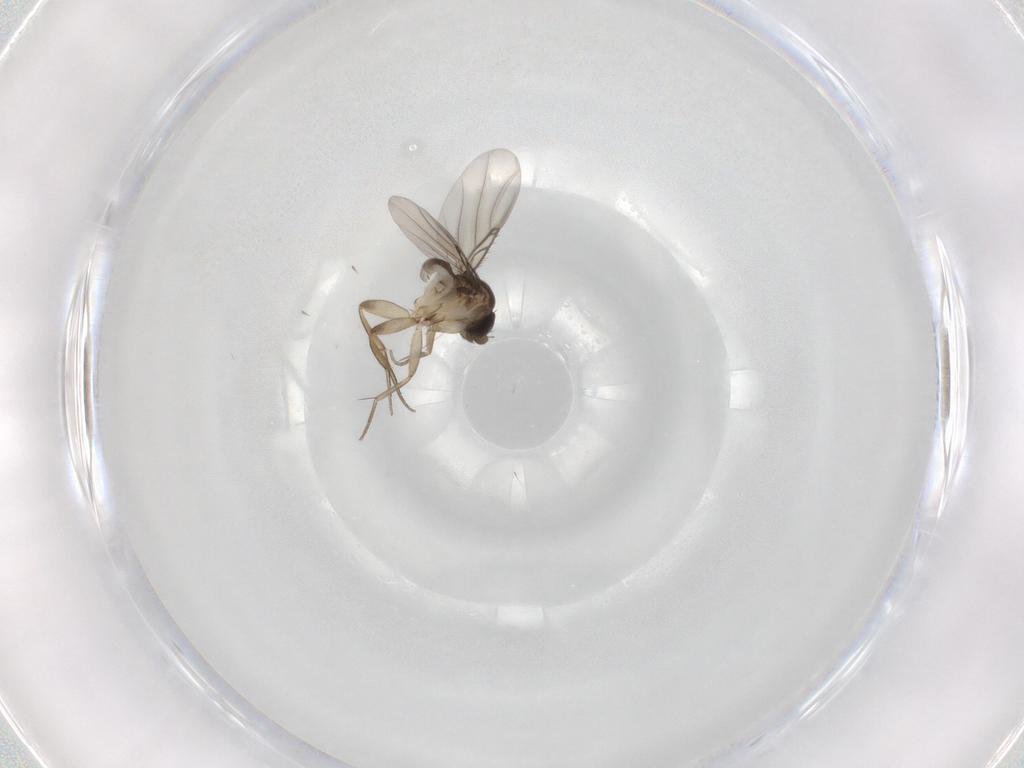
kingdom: Animalia
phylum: Arthropoda
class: Insecta
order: Diptera
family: Phoridae
